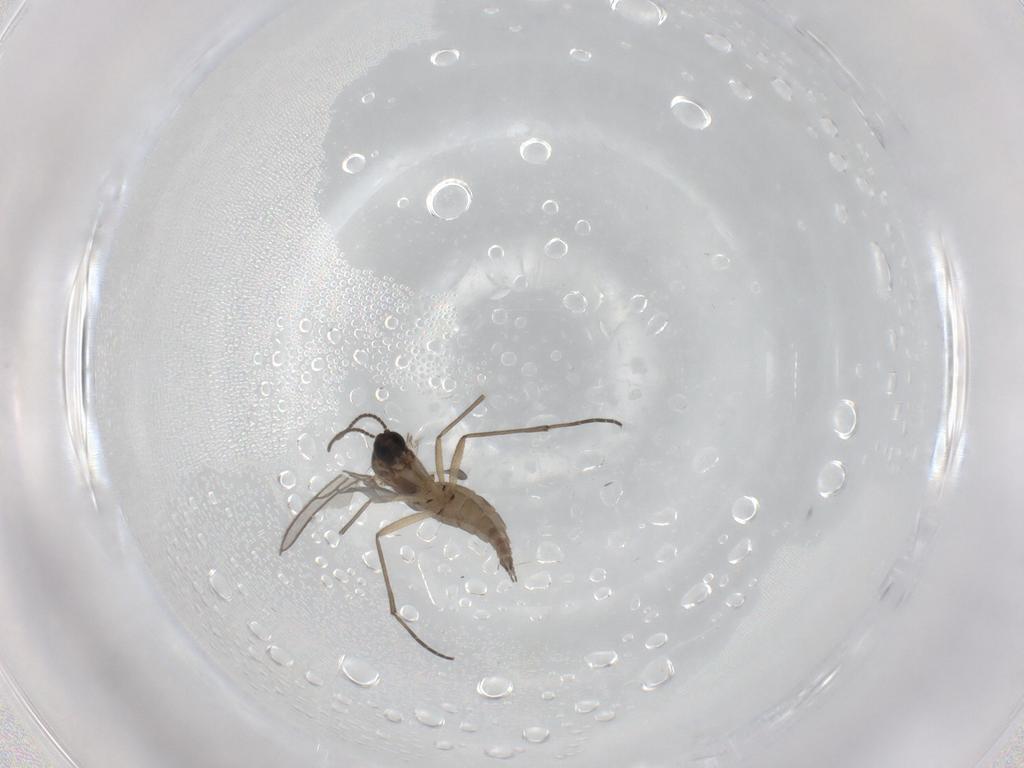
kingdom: Animalia
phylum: Arthropoda
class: Insecta
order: Diptera
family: Sciaridae
